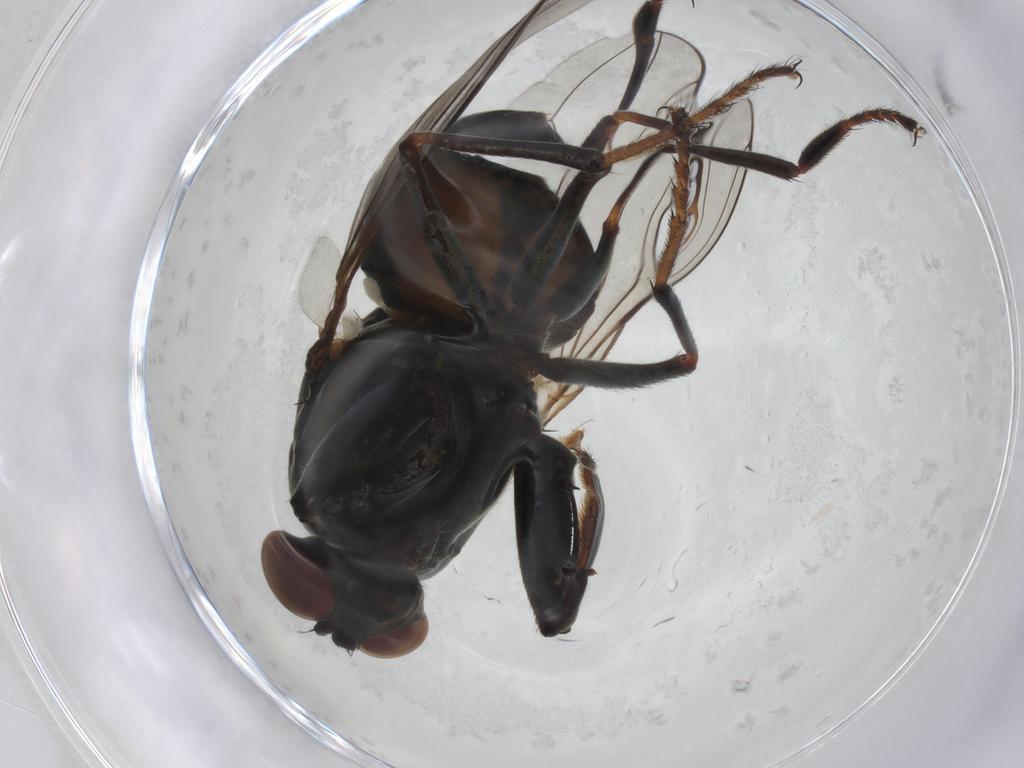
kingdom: Animalia
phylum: Arthropoda
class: Insecta
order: Diptera
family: Ephydridae
